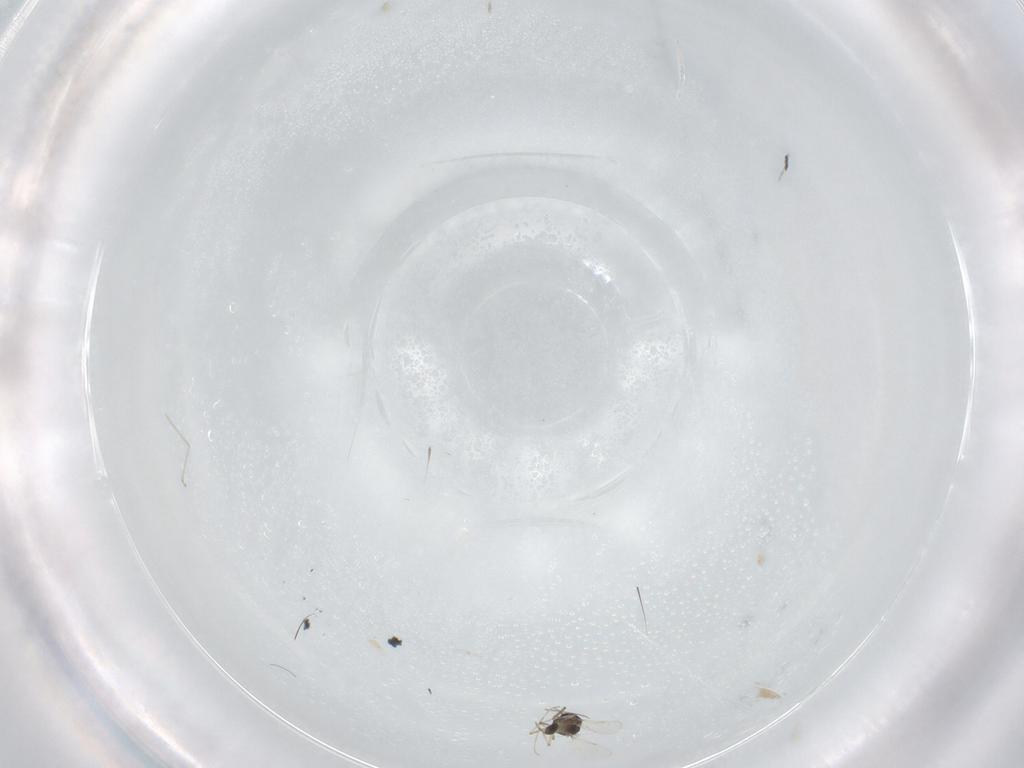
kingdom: Animalia
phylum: Arthropoda
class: Insecta
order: Diptera
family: Ceratopogonidae
